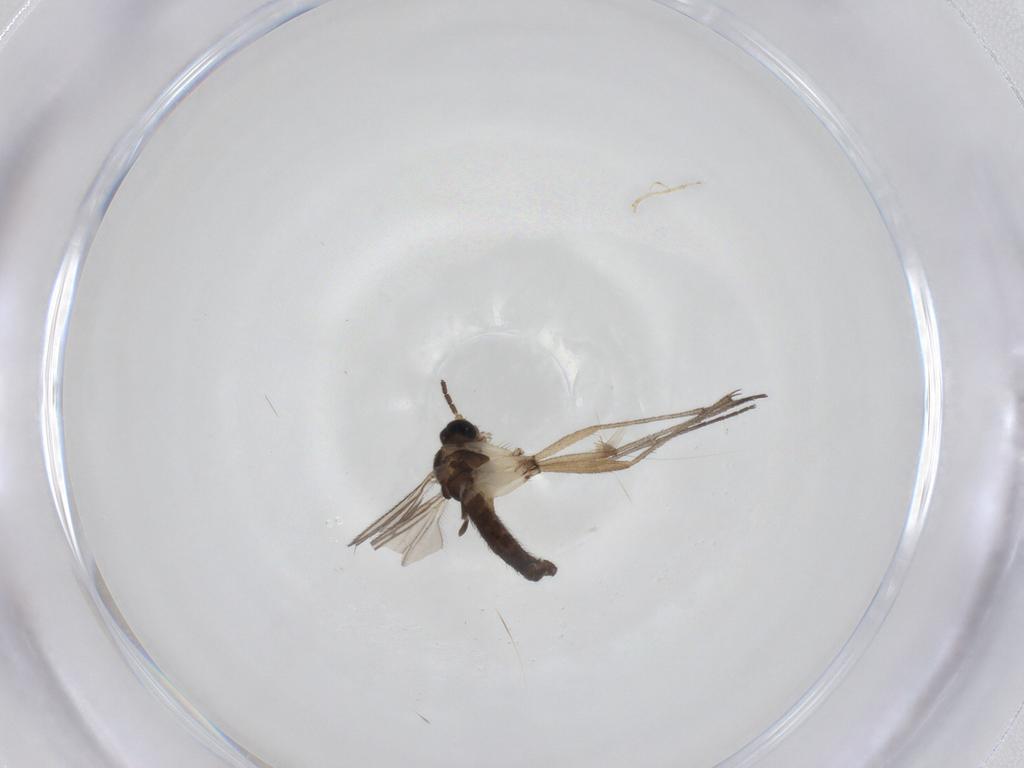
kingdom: Animalia
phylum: Arthropoda
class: Insecta
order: Diptera
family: Sciaridae
